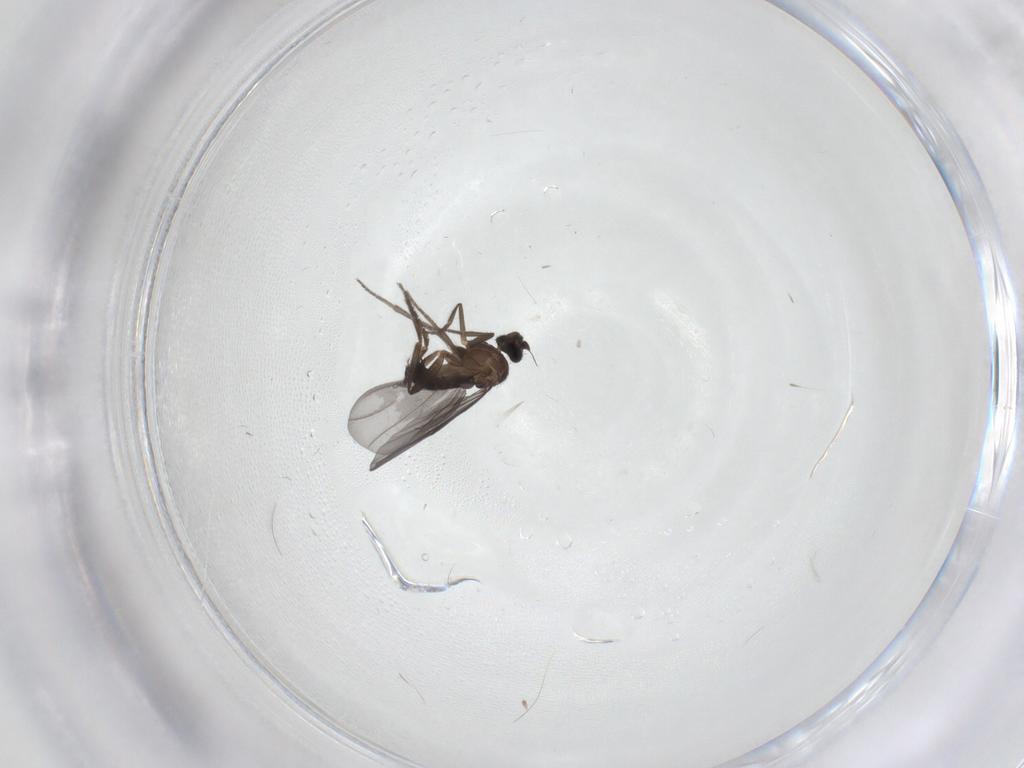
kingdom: Animalia
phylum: Arthropoda
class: Insecta
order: Diptera
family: Phoridae
